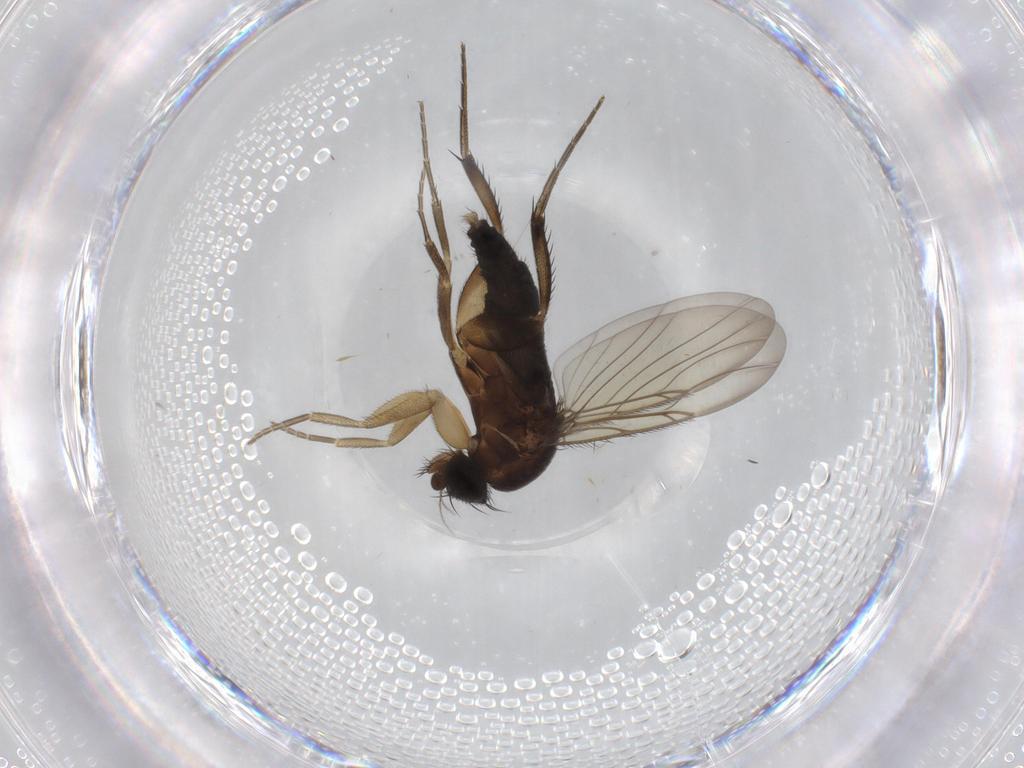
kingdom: Animalia
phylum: Arthropoda
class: Insecta
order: Diptera
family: Phoridae
